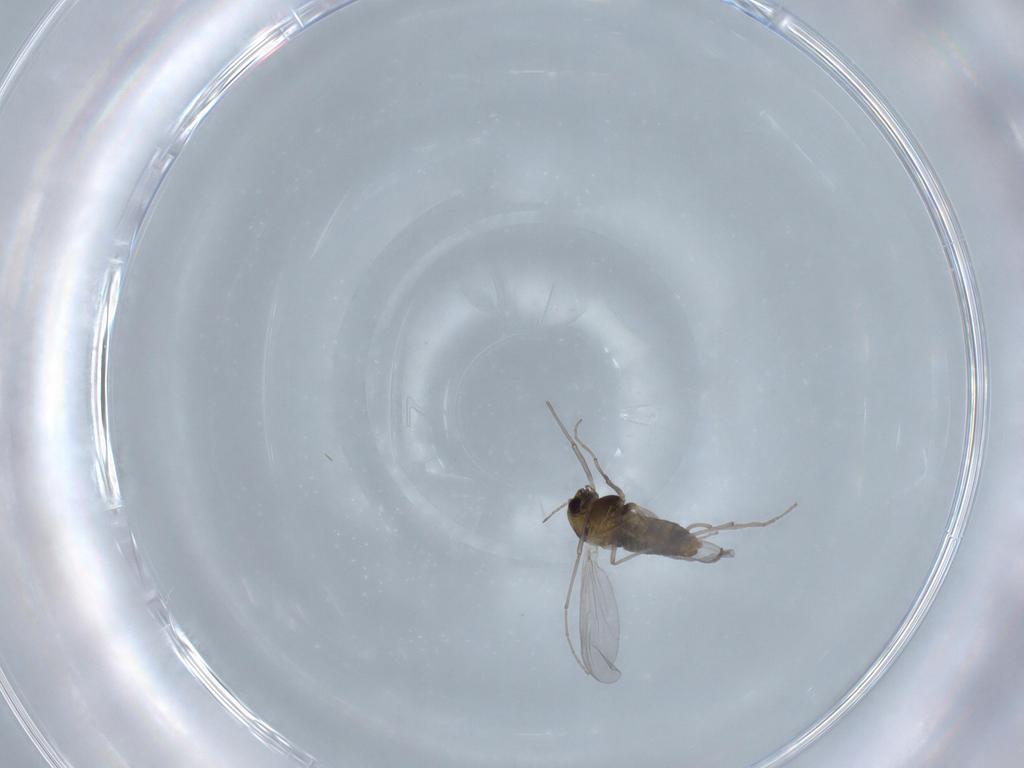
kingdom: Animalia
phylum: Arthropoda
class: Insecta
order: Diptera
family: Chironomidae
